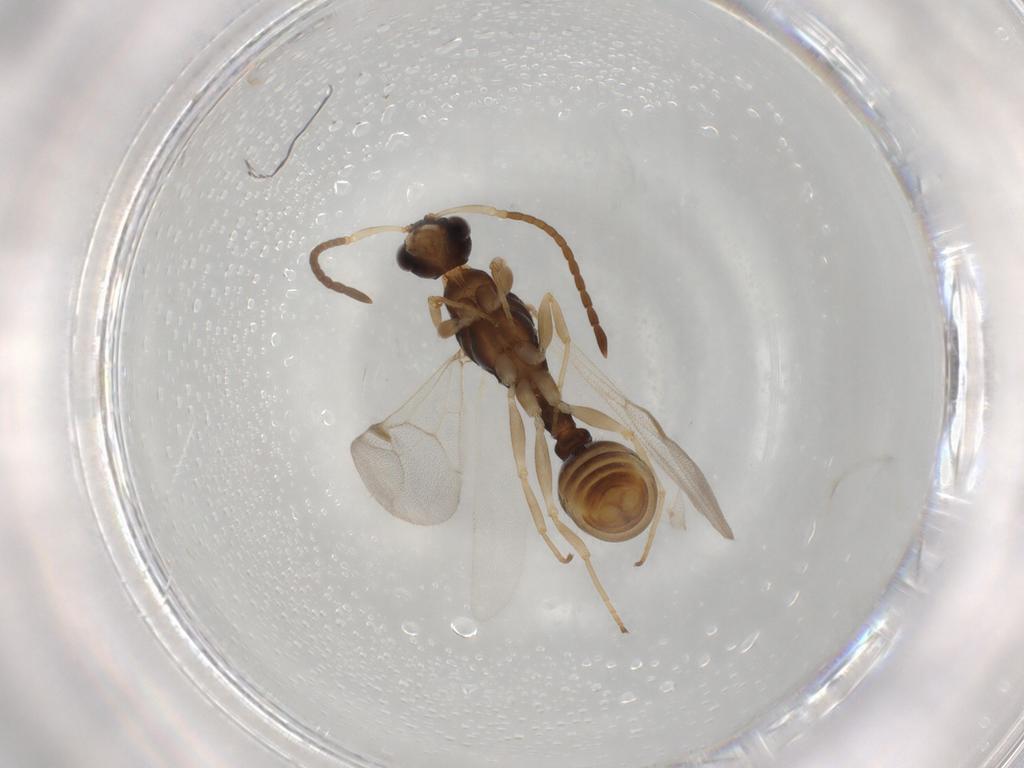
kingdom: Animalia
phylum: Arthropoda
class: Insecta
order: Hymenoptera
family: Formicidae
